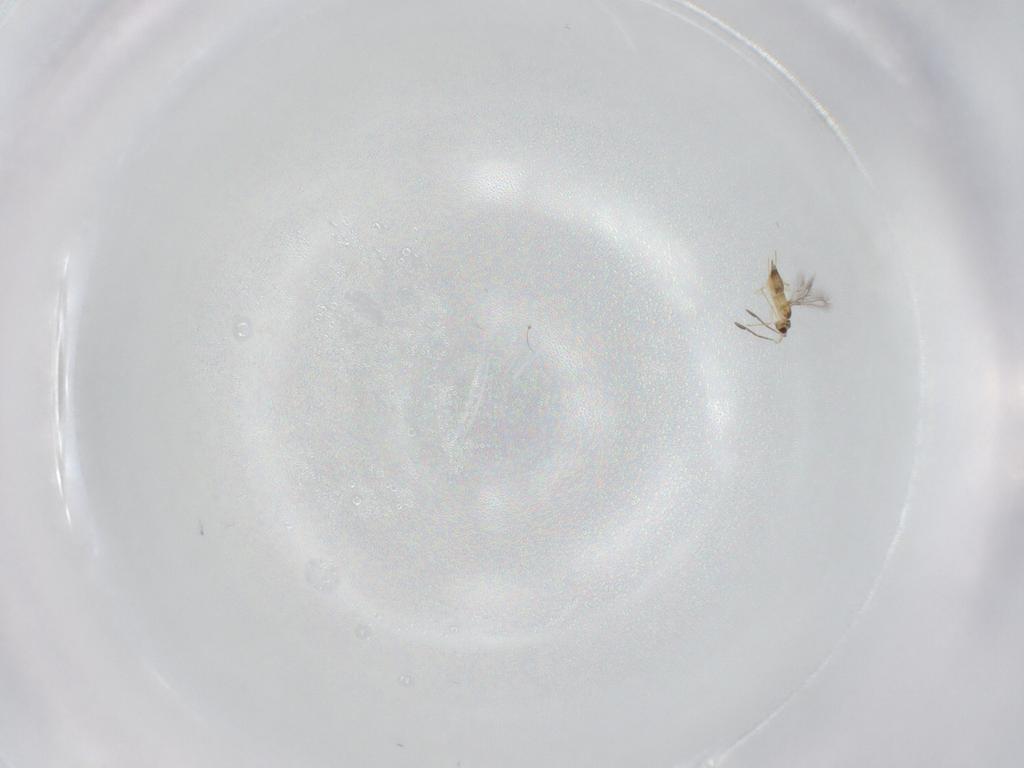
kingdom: Animalia
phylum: Arthropoda
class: Insecta
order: Hymenoptera
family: Mymaridae
